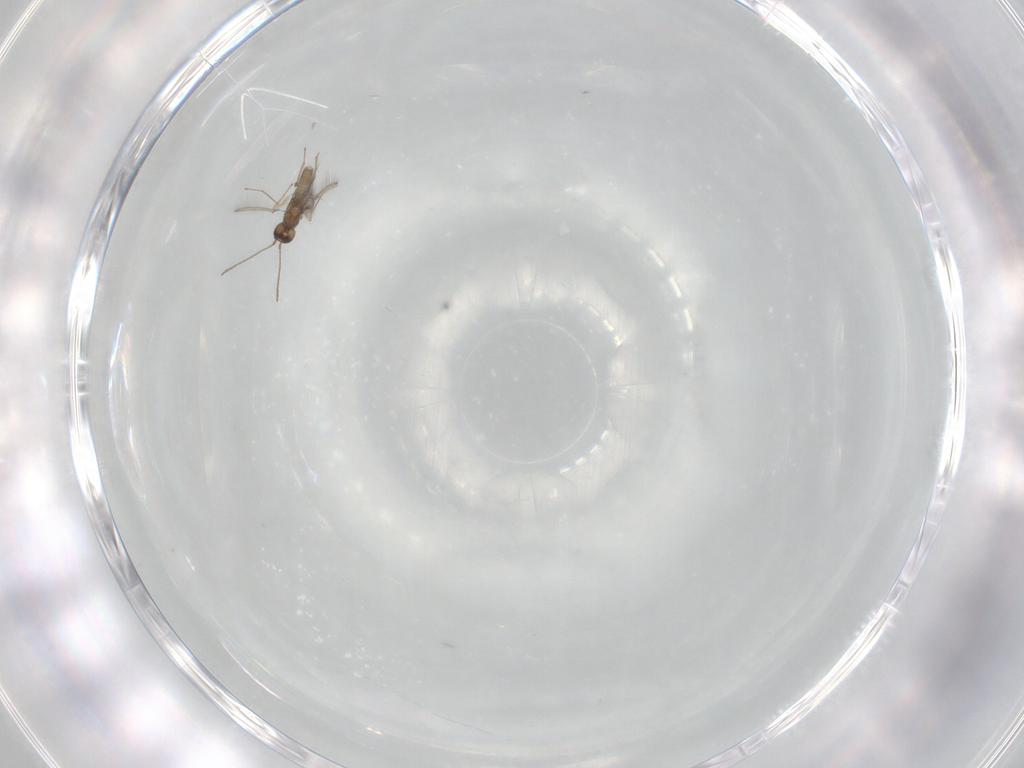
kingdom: Animalia
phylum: Arthropoda
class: Insecta
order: Hymenoptera
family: Mymaridae
